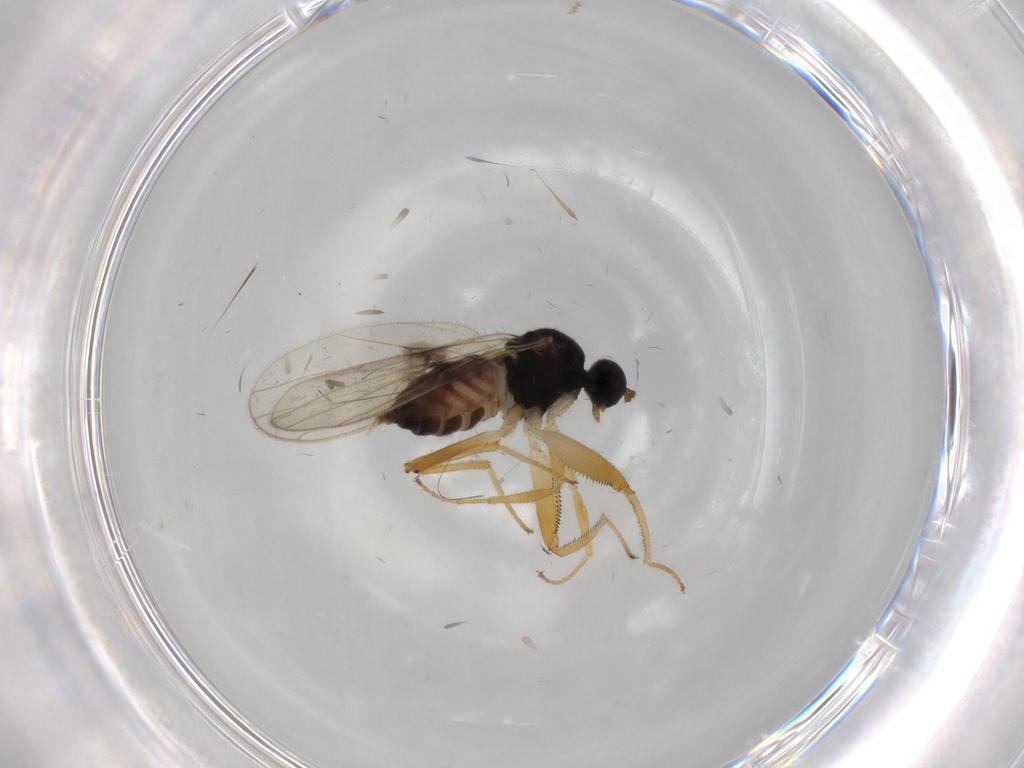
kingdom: Animalia
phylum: Arthropoda
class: Insecta
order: Diptera
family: Hybotidae
